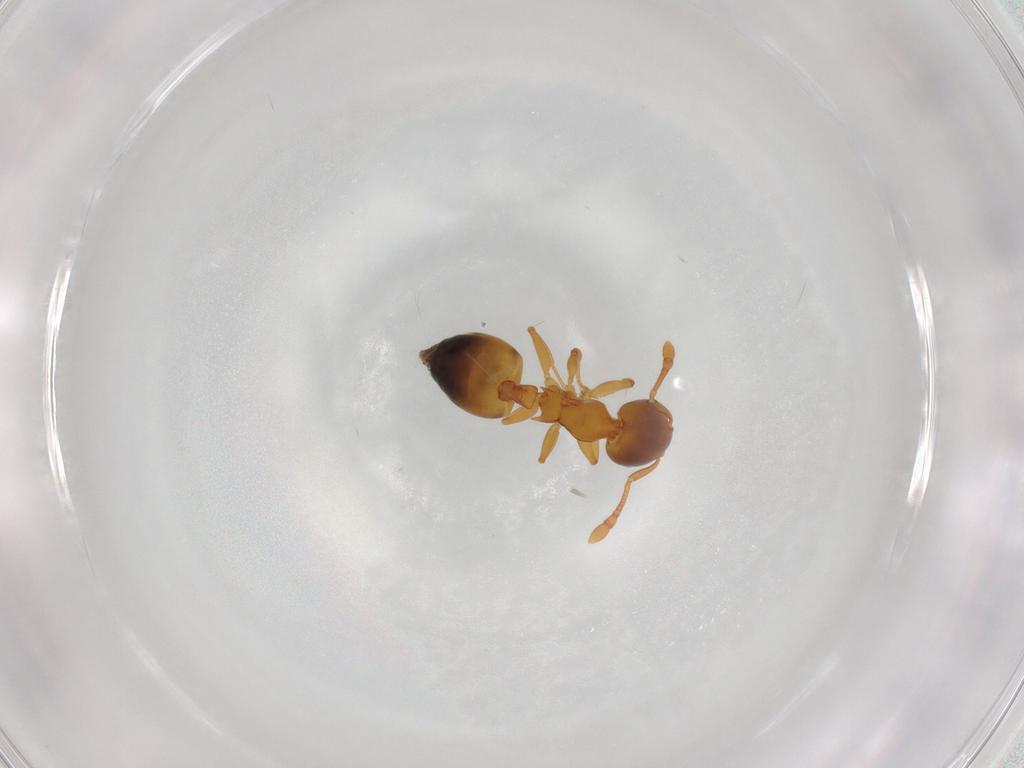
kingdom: Animalia
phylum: Arthropoda
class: Insecta
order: Hymenoptera
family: Formicidae
